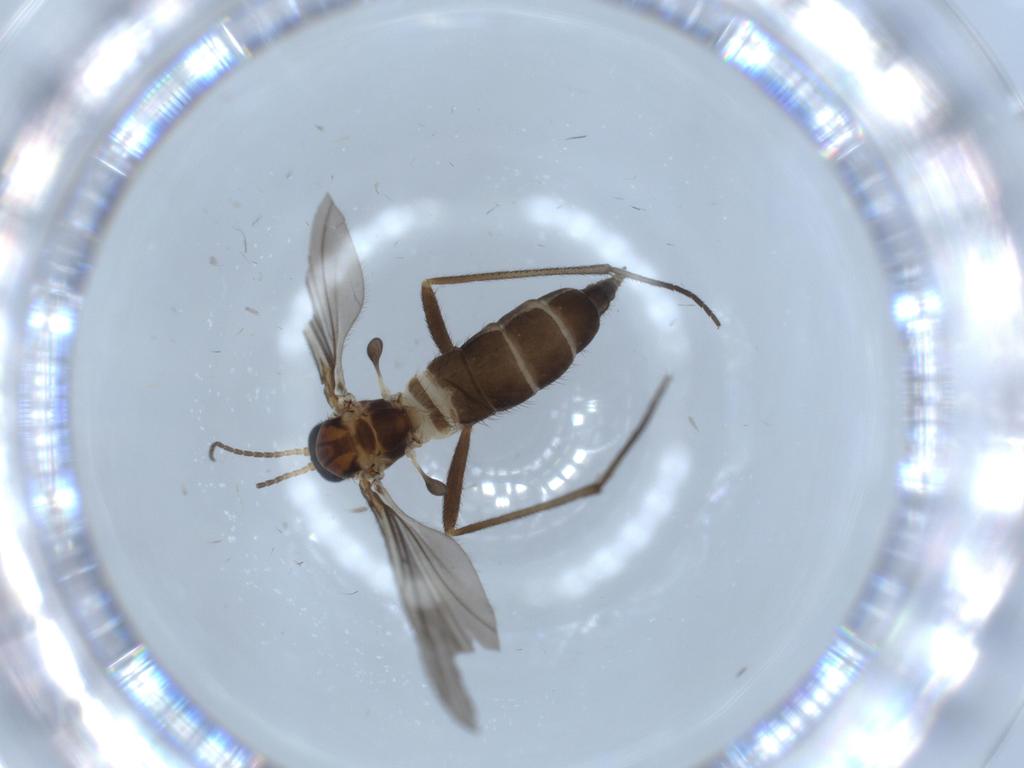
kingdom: Animalia
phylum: Arthropoda
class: Insecta
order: Diptera
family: Sciaridae
